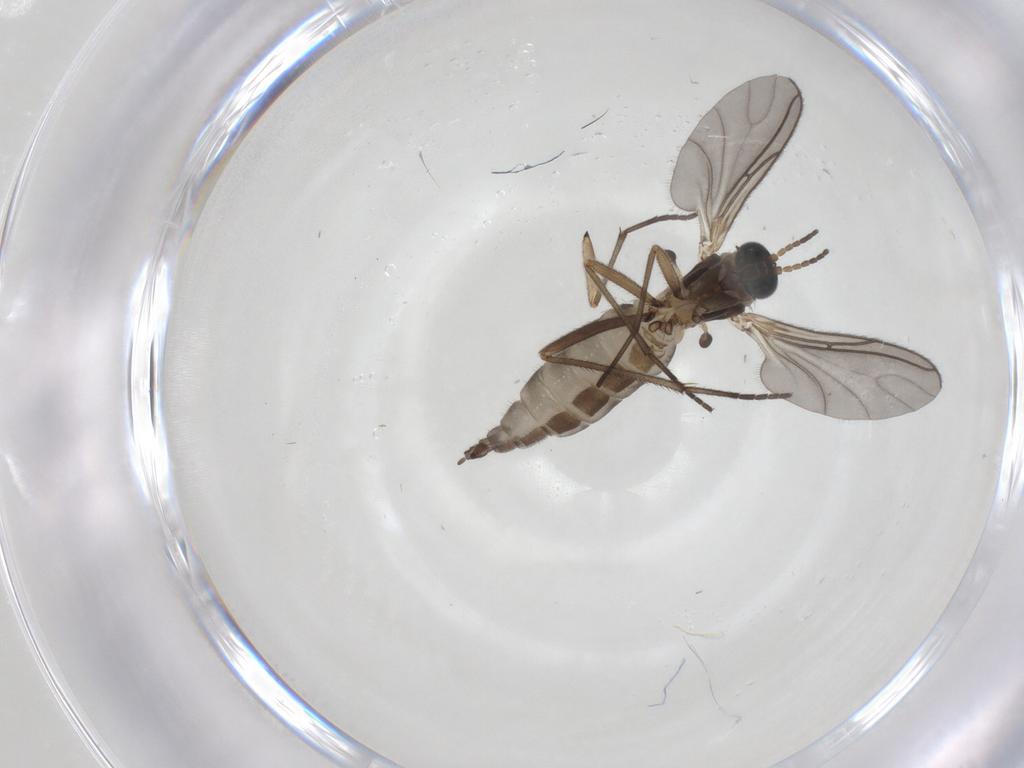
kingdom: Animalia
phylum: Arthropoda
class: Insecta
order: Diptera
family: Sciaridae
